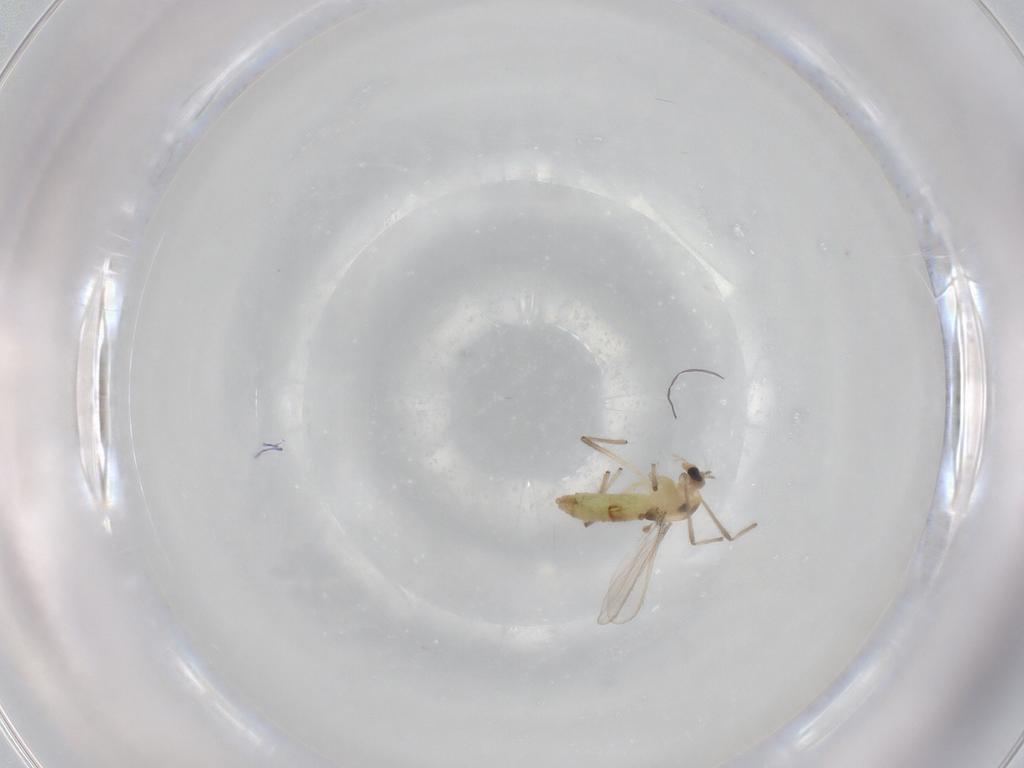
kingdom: Animalia
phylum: Arthropoda
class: Insecta
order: Diptera
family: Chironomidae
